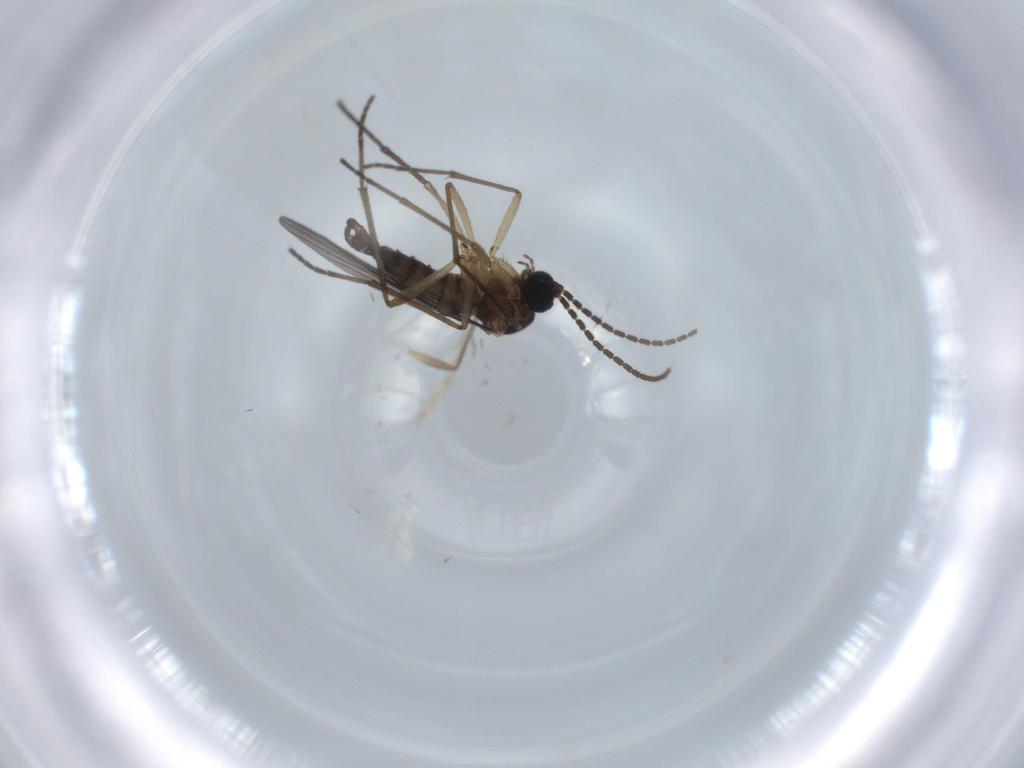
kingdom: Animalia
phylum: Arthropoda
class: Insecta
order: Diptera
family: Sciaridae
